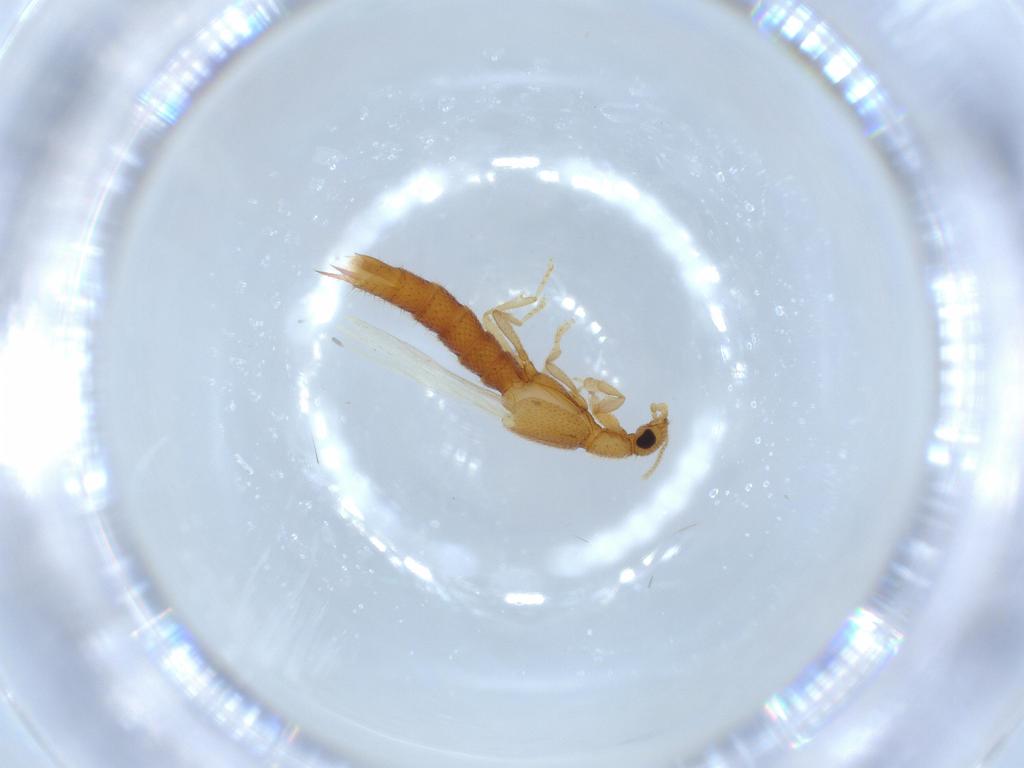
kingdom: Animalia
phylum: Arthropoda
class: Insecta
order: Coleoptera
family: Staphylinidae
